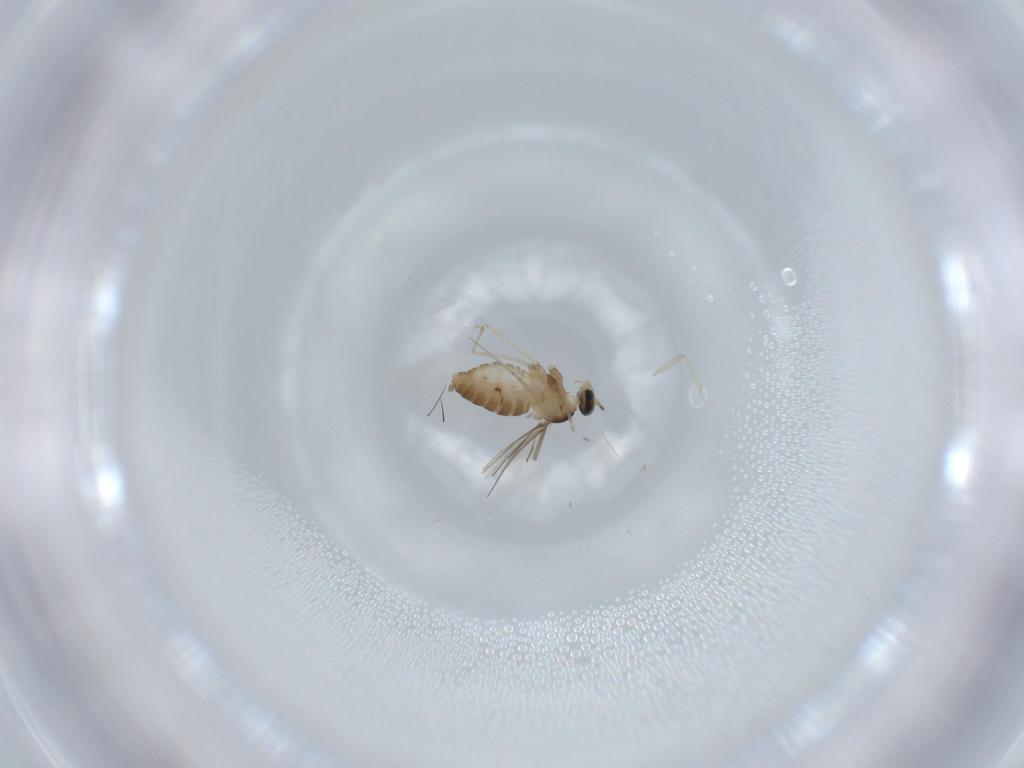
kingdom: Animalia
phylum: Arthropoda
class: Insecta
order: Diptera
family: Cecidomyiidae
